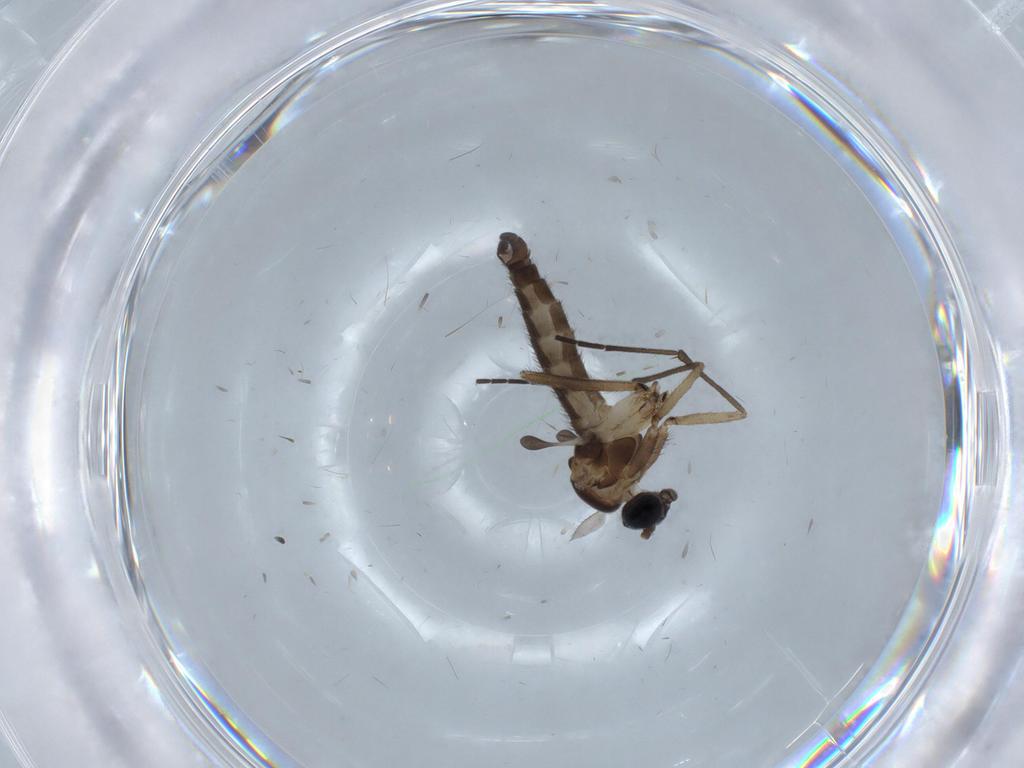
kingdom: Animalia
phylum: Arthropoda
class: Insecta
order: Diptera
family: Sciaridae
